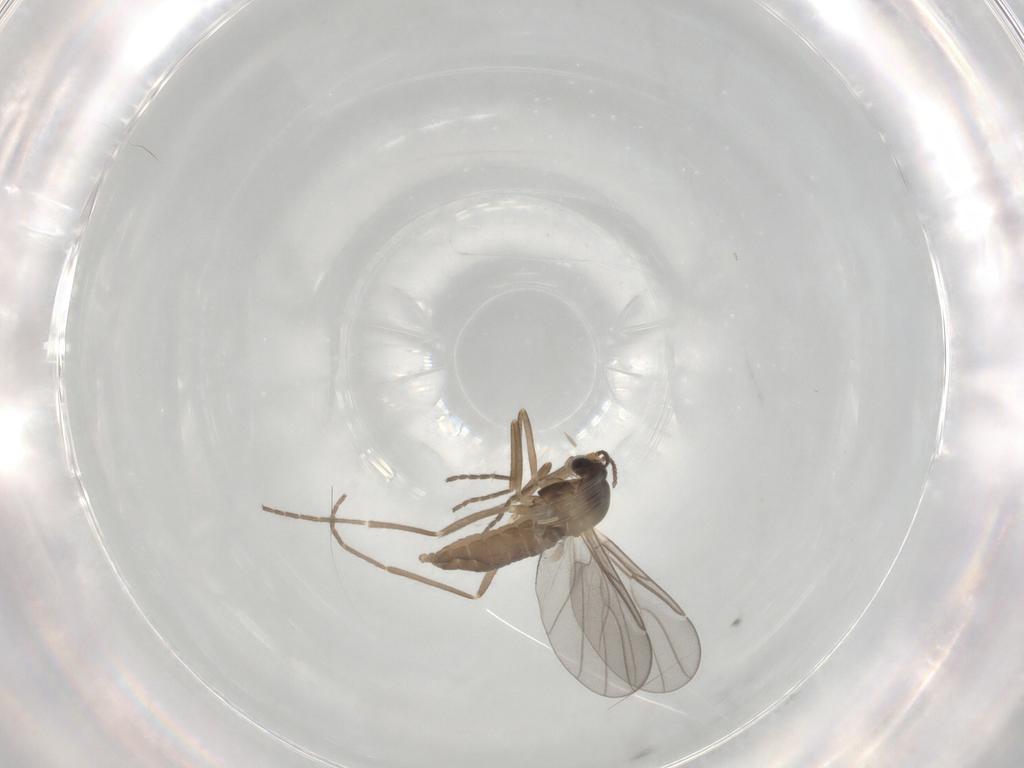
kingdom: Animalia
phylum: Arthropoda
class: Insecta
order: Diptera
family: Cecidomyiidae
